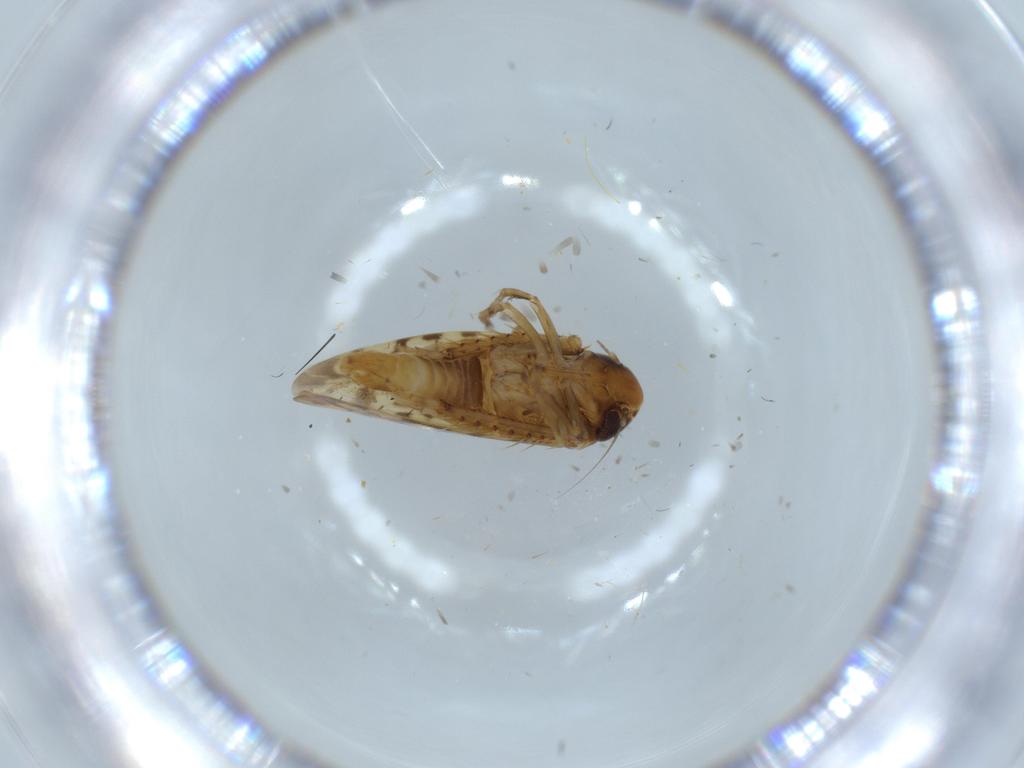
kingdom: Animalia
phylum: Arthropoda
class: Insecta
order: Hemiptera
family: Cicadellidae
